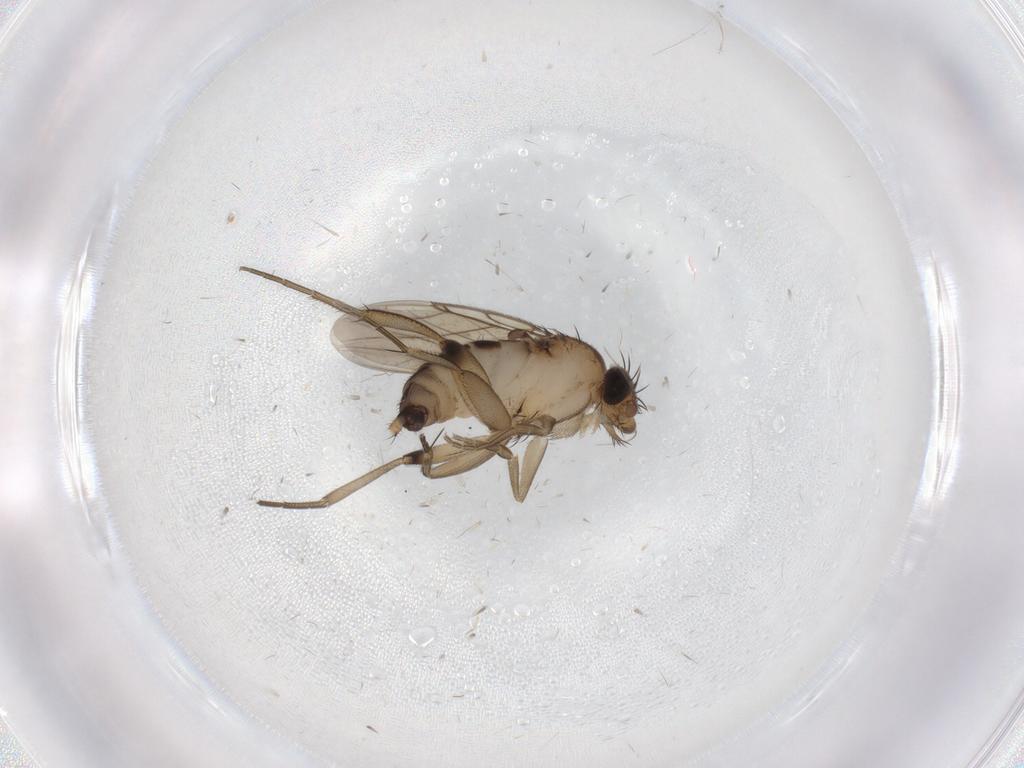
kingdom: Animalia
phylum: Arthropoda
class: Insecta
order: Diptera
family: Phoridae
